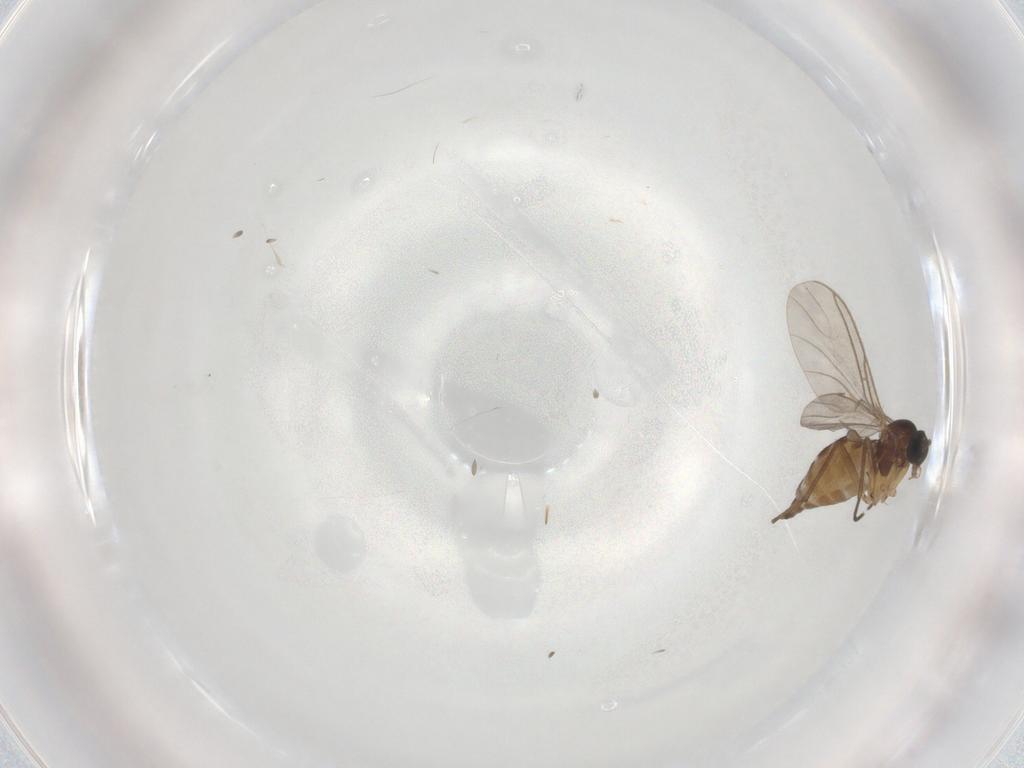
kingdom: Animalia
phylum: Arthropoda
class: Insecta
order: Diptera
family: Sciaridae
